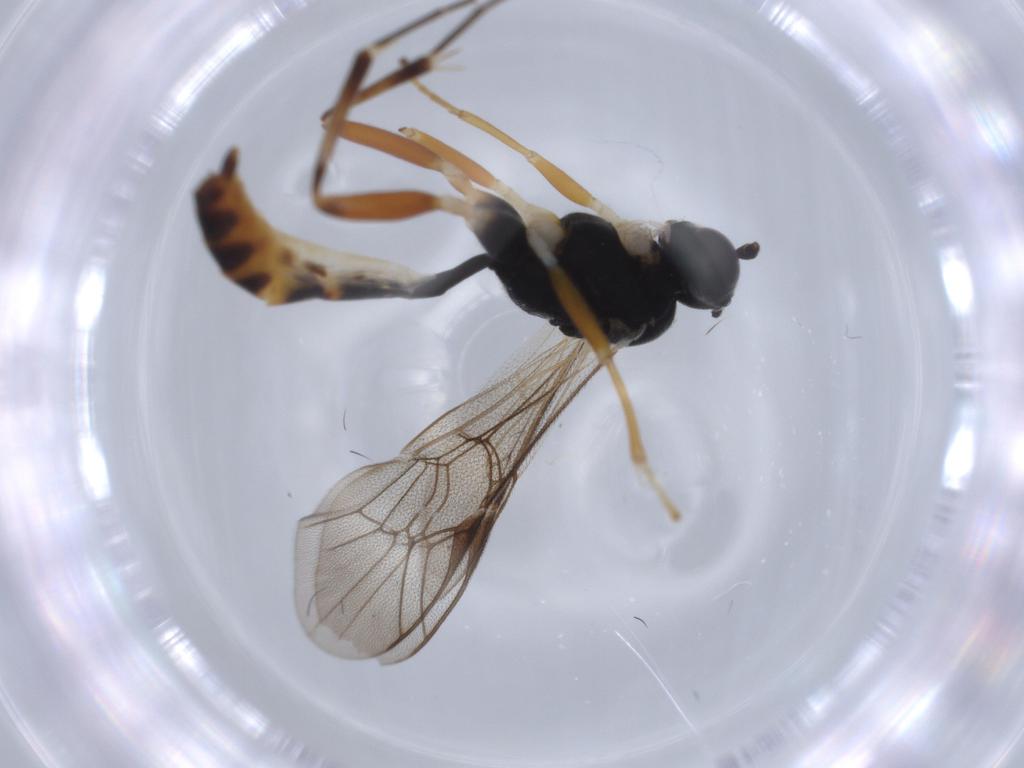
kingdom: Animalia
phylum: Arthropoda
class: Insecta
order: Hymenoptera
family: Ichneumonidae
